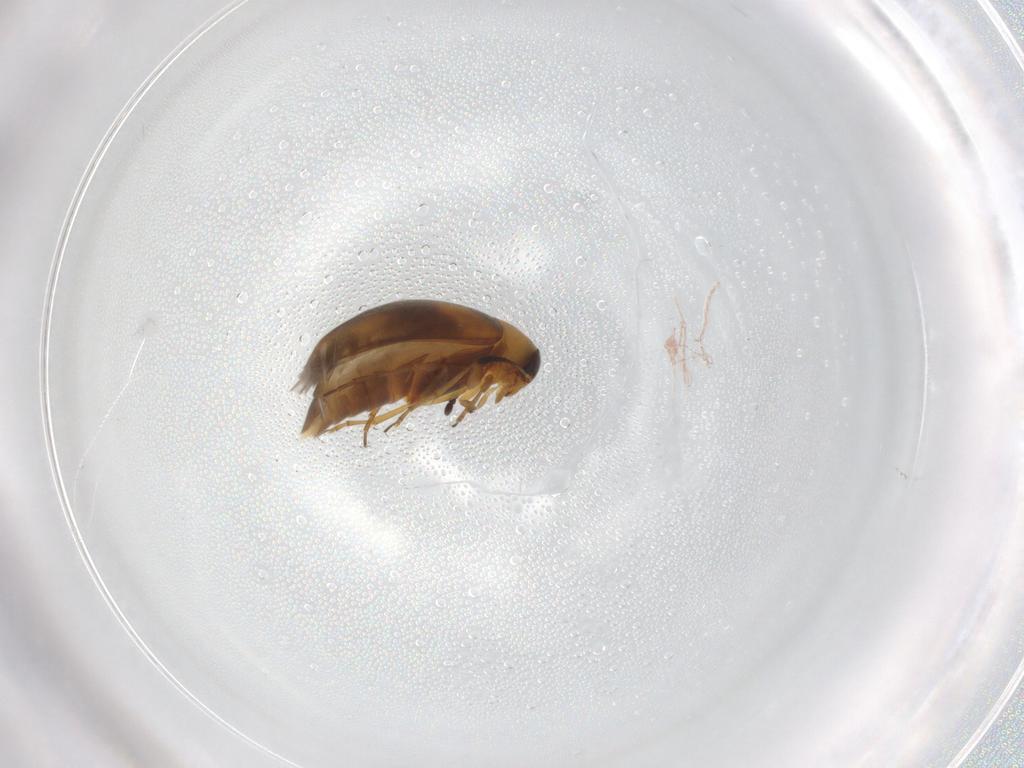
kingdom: Animalia
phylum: Arthropoda
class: Insecta
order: Coleoptera
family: Scraptiidae
